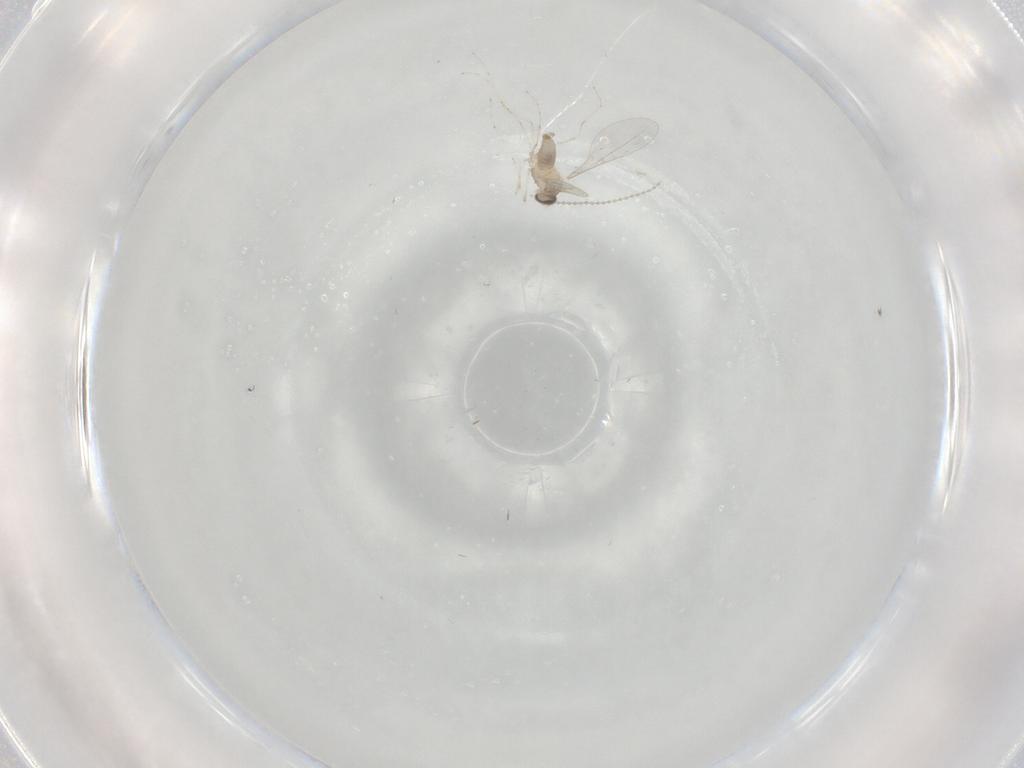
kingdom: Animalia
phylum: Arthropoda
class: Insecta
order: Diptera
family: Cecidomyiidae
